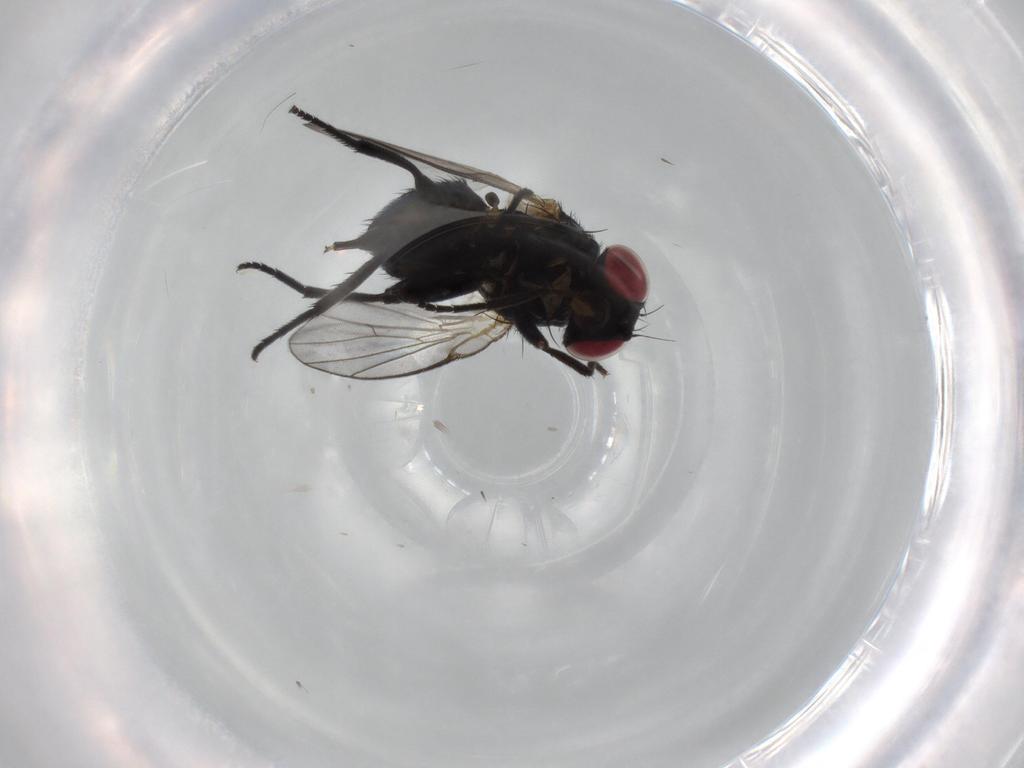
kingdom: Animalia
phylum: Arthropoda
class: Insecta
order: Diptera
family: Agromyzidae
